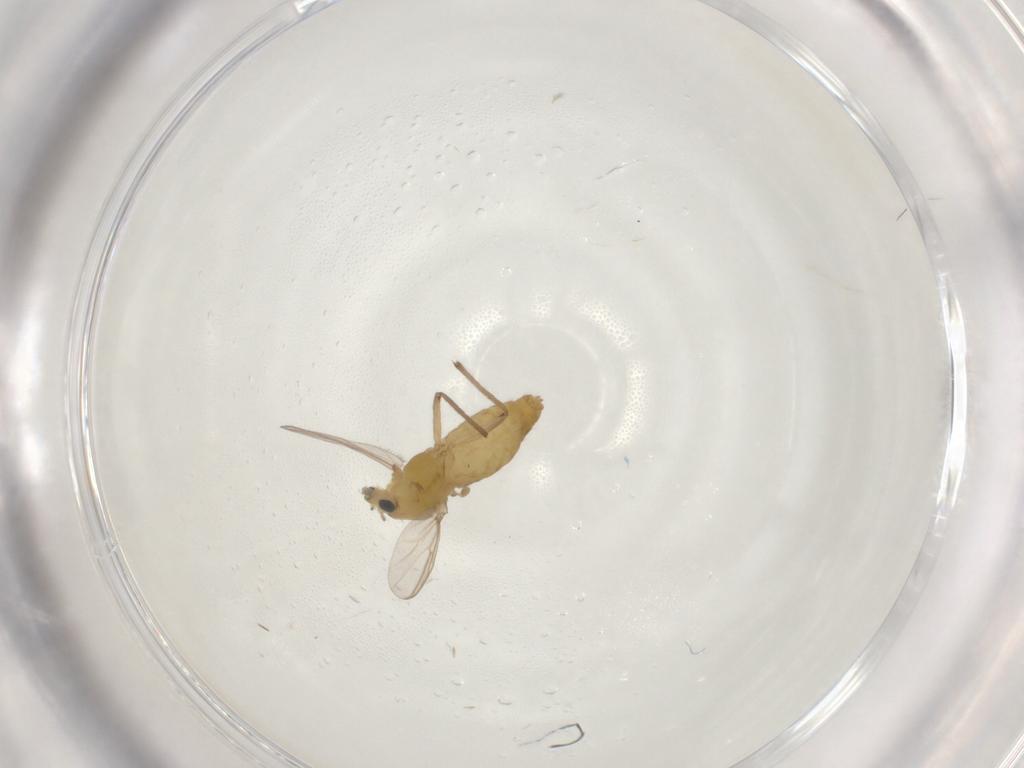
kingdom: Animalia
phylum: Arthropoda
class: Insecta
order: Diptera
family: Chironomidae
